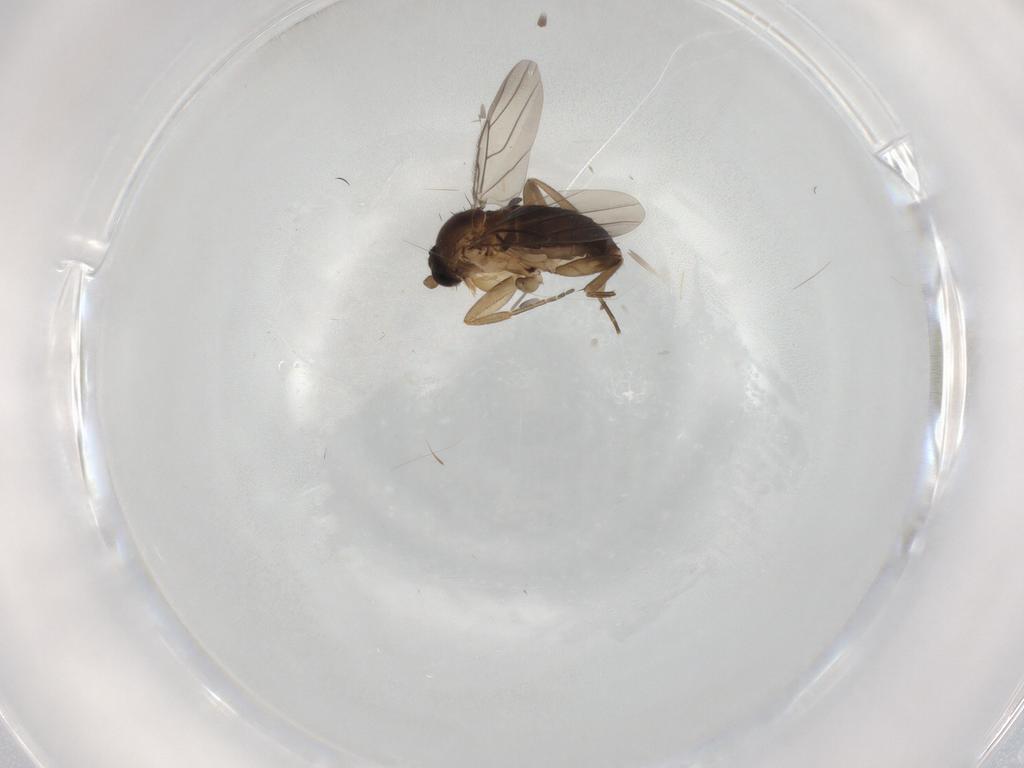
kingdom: Animalia
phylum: Arthropoda
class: Insecta
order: Diptera
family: Phoridae
